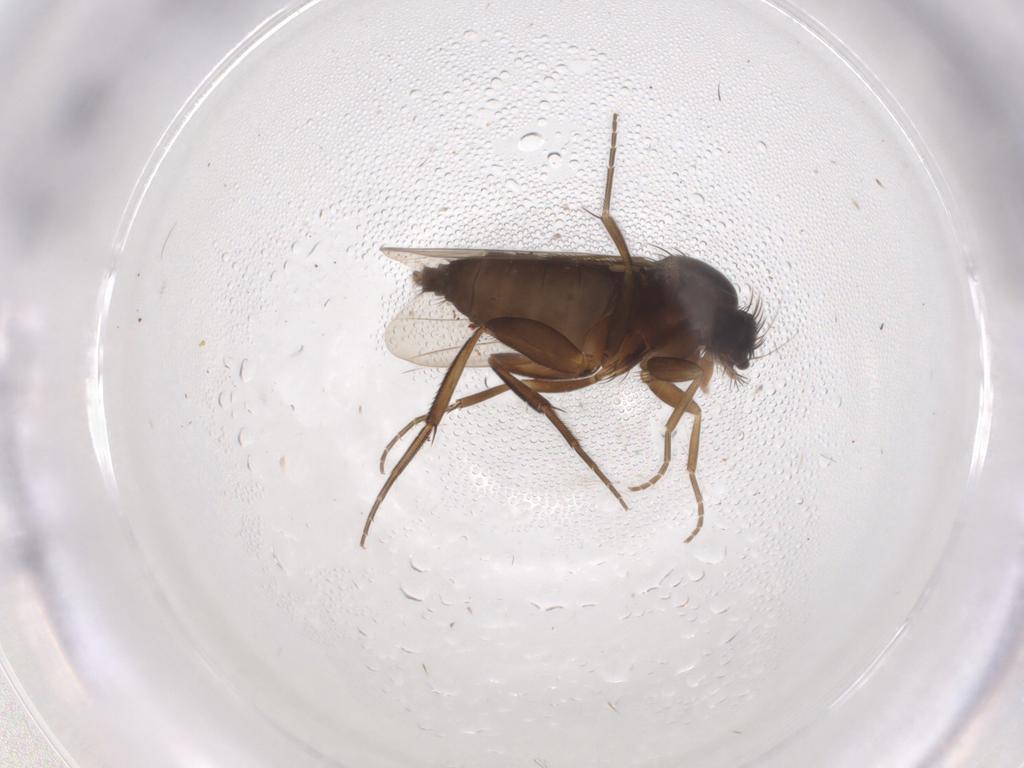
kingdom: Animalia
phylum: Arthropoda
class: Insecta
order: Diptera
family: Phoridae
